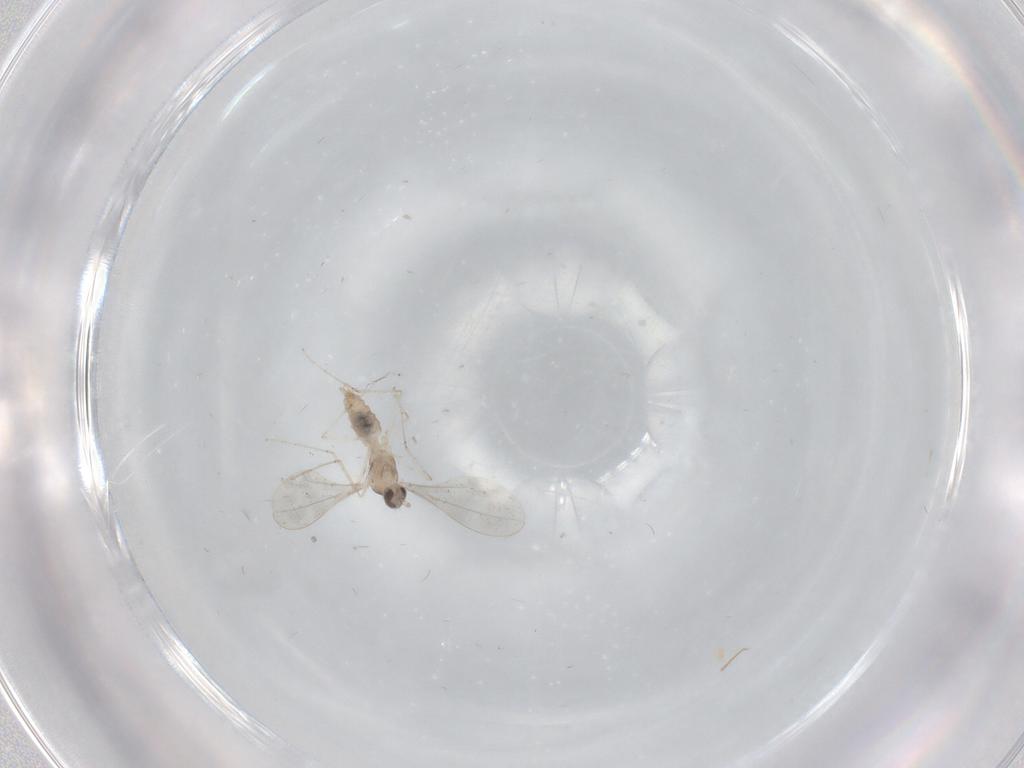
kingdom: Animalia
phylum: Arthropoda
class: Insecta
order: Diptera
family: Cecidomyiidae
